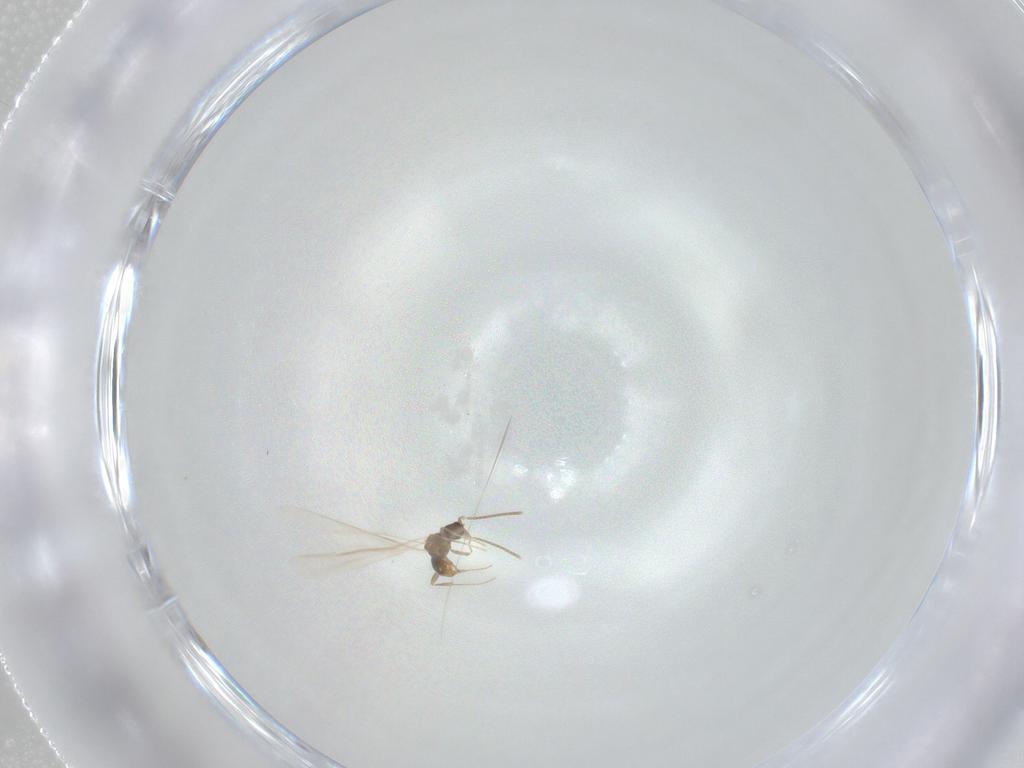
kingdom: Animalia
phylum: Arthropoda
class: Insecta
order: Hymenoptera
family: Formicidae
